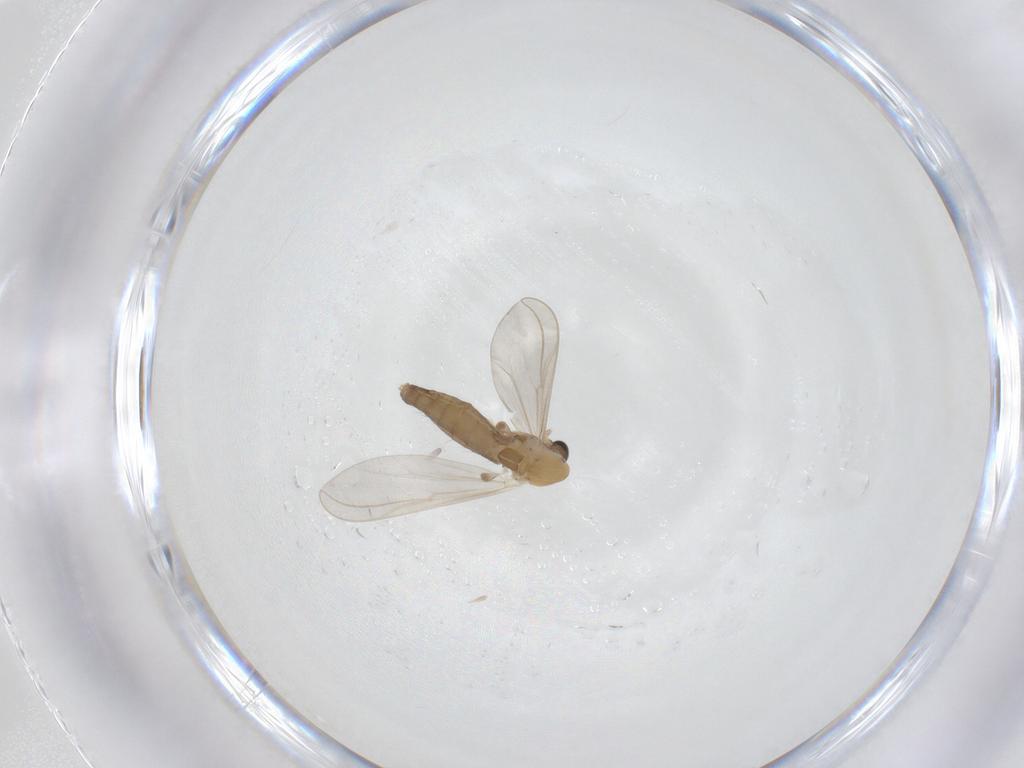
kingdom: Animalia
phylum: Arthropoda
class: Insecta
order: Diptera
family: Chironomidae
